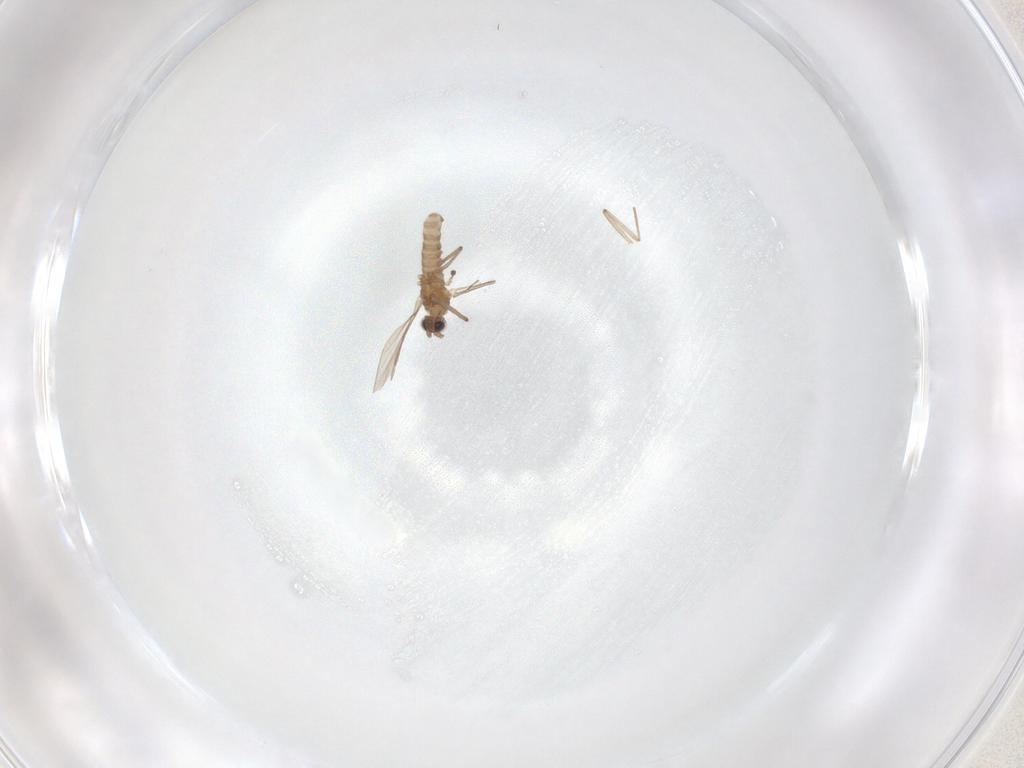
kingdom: Animalia
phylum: Arthropoda
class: Insecta
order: Diptera
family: Cecidomyiidae
